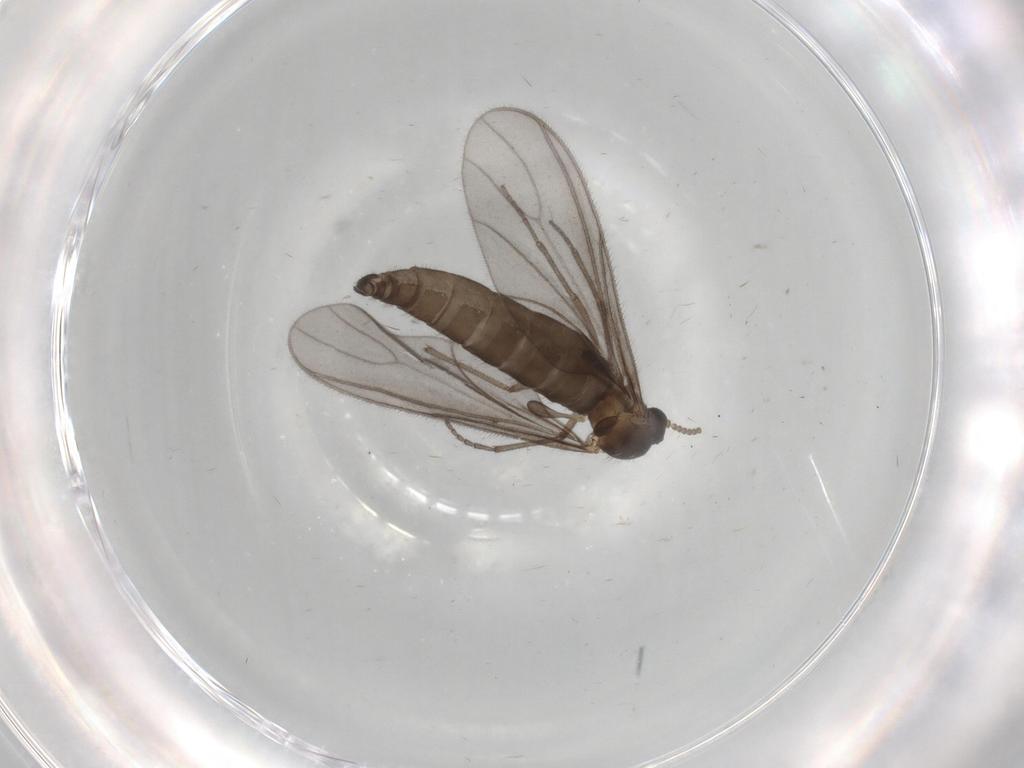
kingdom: Animalia
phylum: Arthropoda
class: Insecta
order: Diptera
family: Sciaridae
